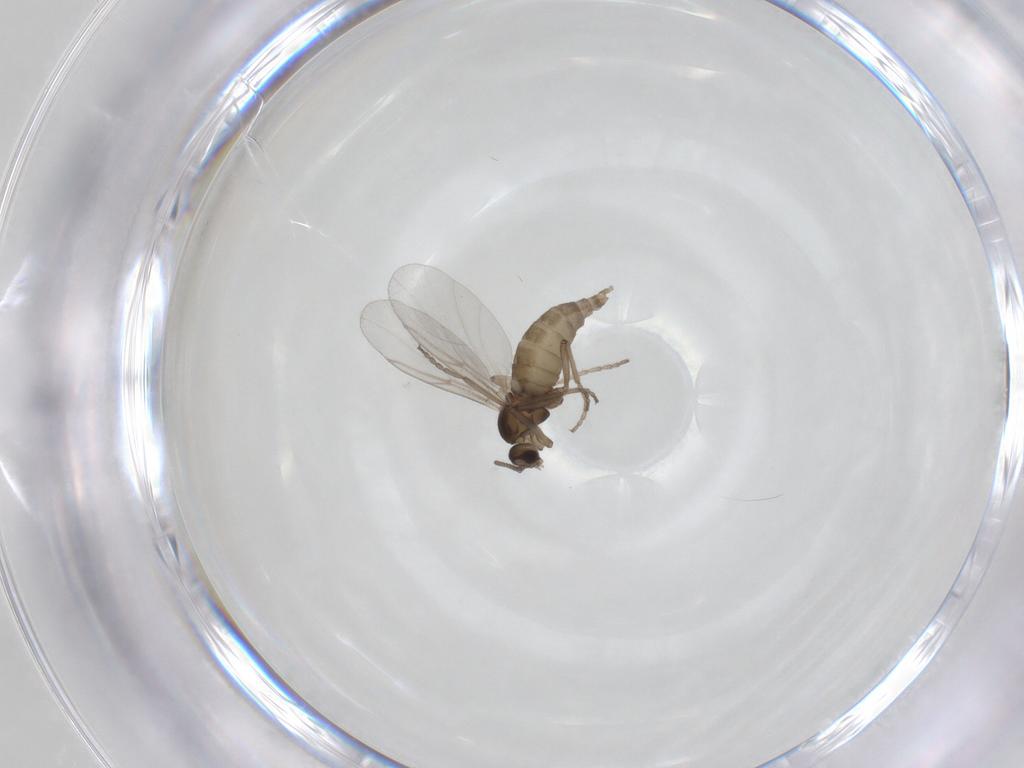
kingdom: Animalia
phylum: Arthropoda
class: Insecta
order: Diptera
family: Cecidomyiidae
